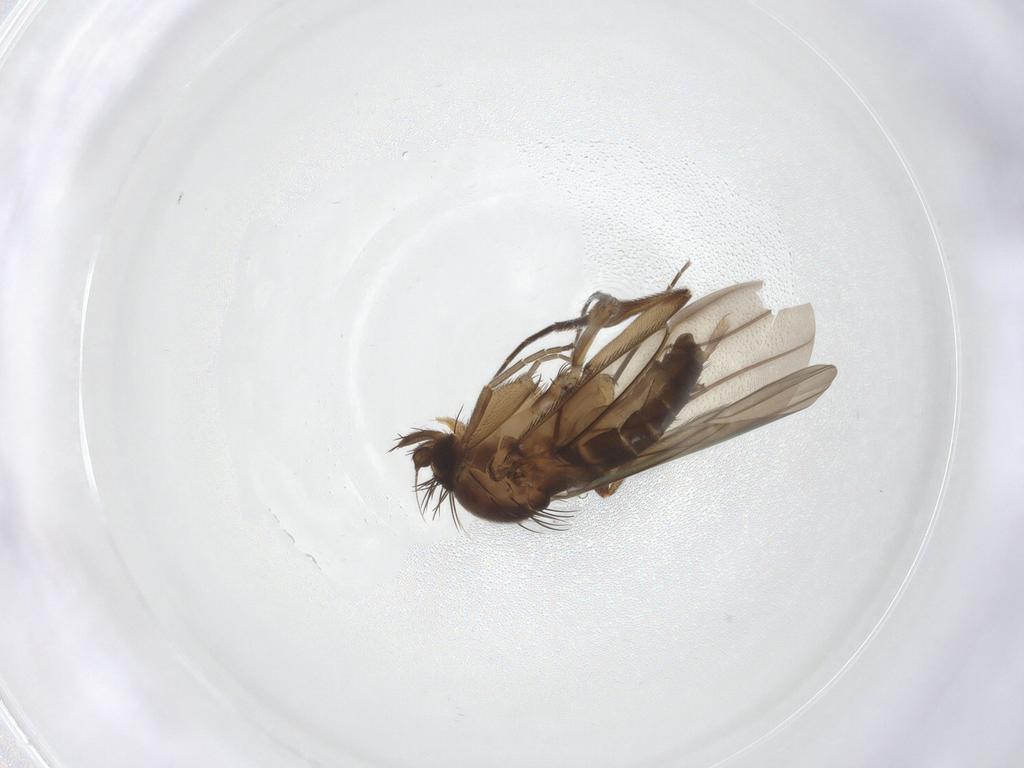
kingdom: Animalia
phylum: Arthropoda
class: Insecta
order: Diptera
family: Phoridae
